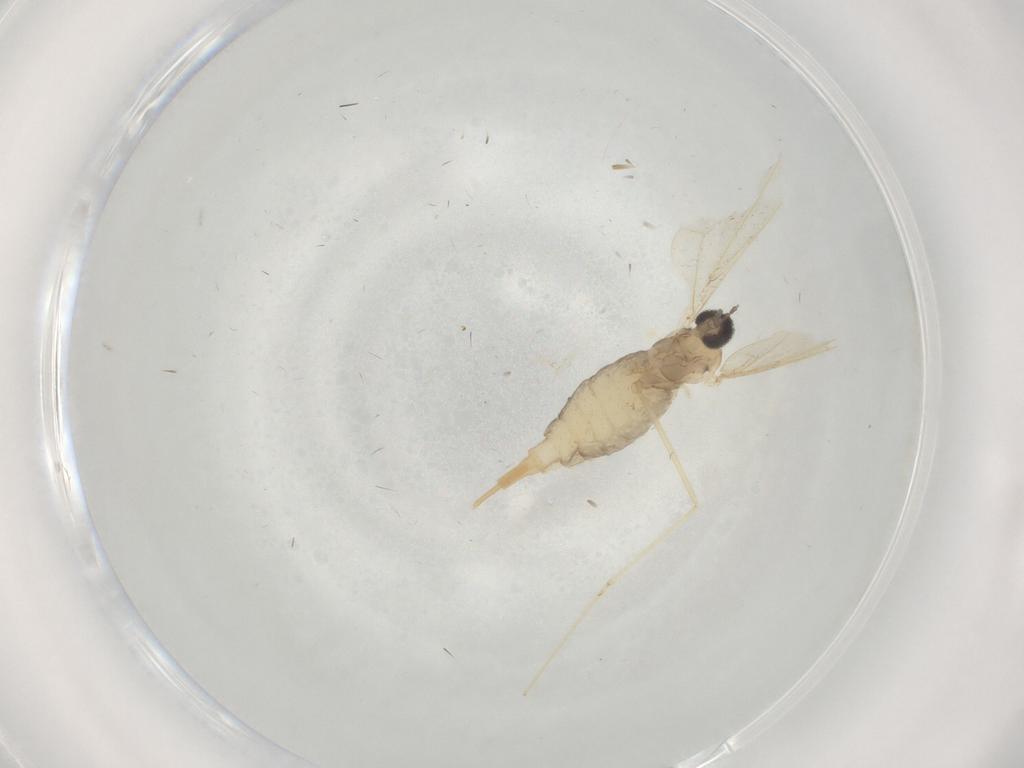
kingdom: Animalia
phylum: Arthropoda
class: Insecta
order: Diptera
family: Cecidomyiidae
